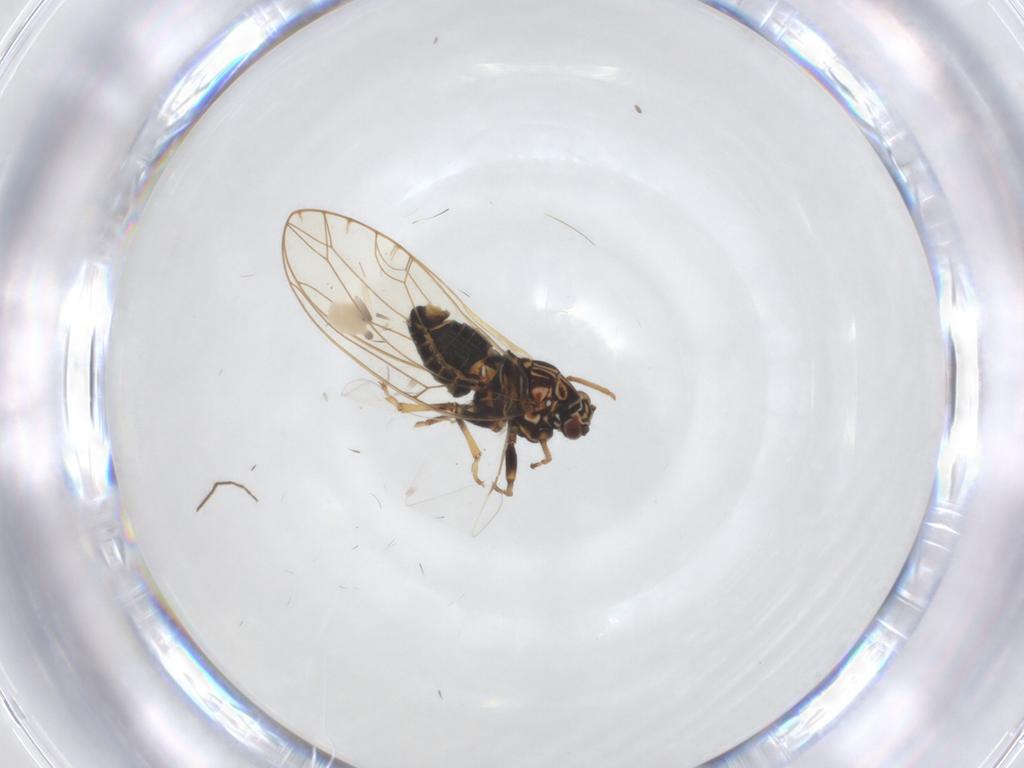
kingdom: Animalia
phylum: Arthropoda
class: Insecta
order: Hemiptera
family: Triozidae
